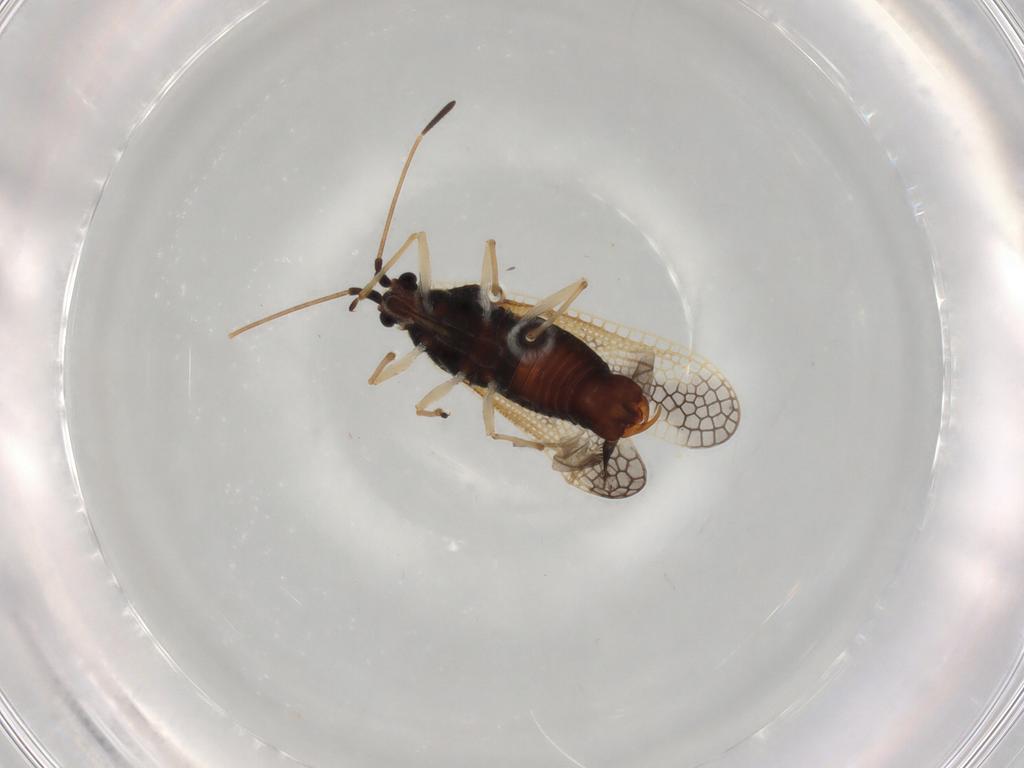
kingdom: Animalia
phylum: Arthropoda
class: Insecta
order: Hemiptera
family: Tingidae
